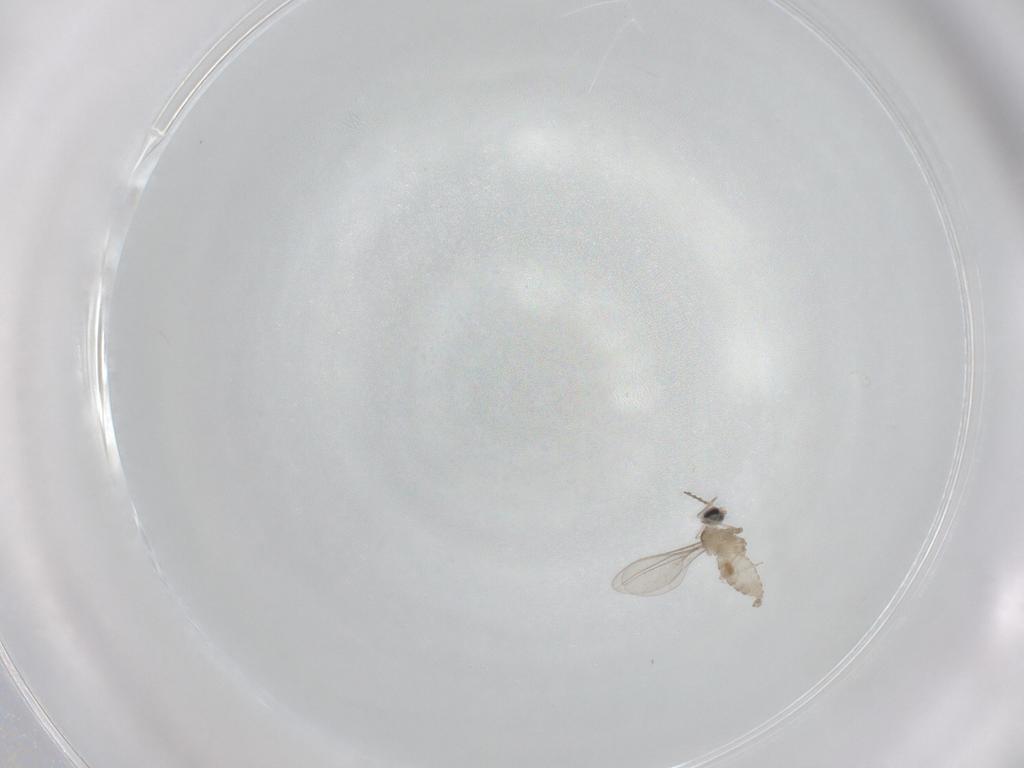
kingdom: Animalia
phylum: Arthropoda
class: Insecta
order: Diptera
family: Cecidomyiidae
